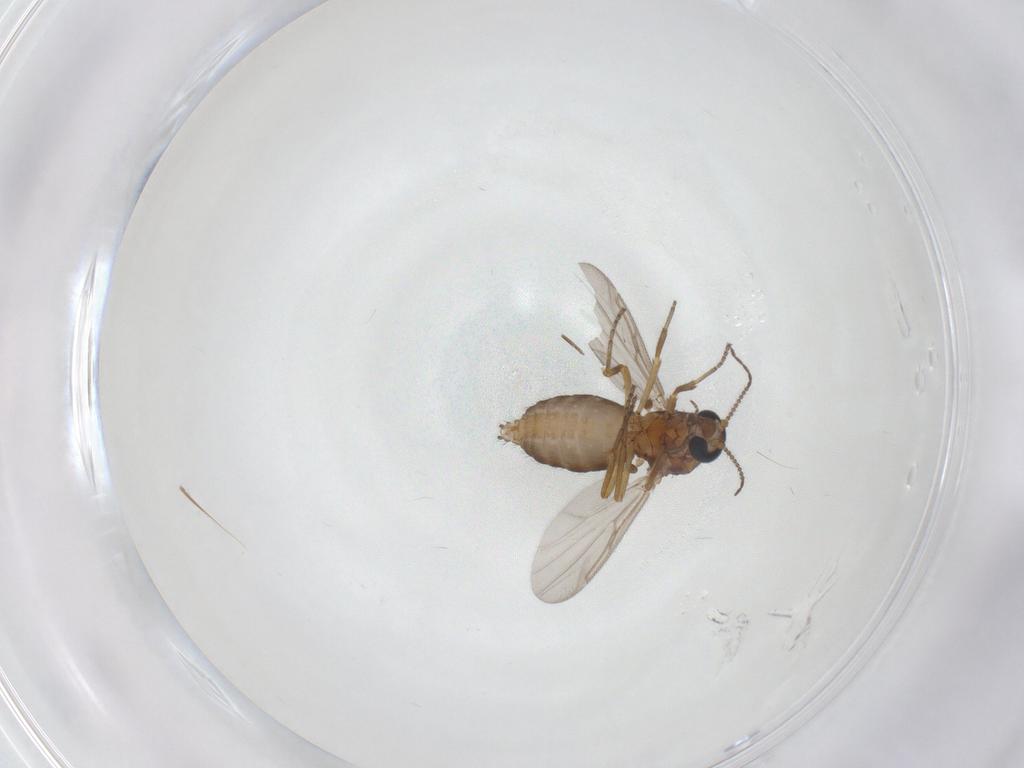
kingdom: Animalia
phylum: Arthropoda
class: Insecta
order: Diptera
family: Ceratopogonidae
